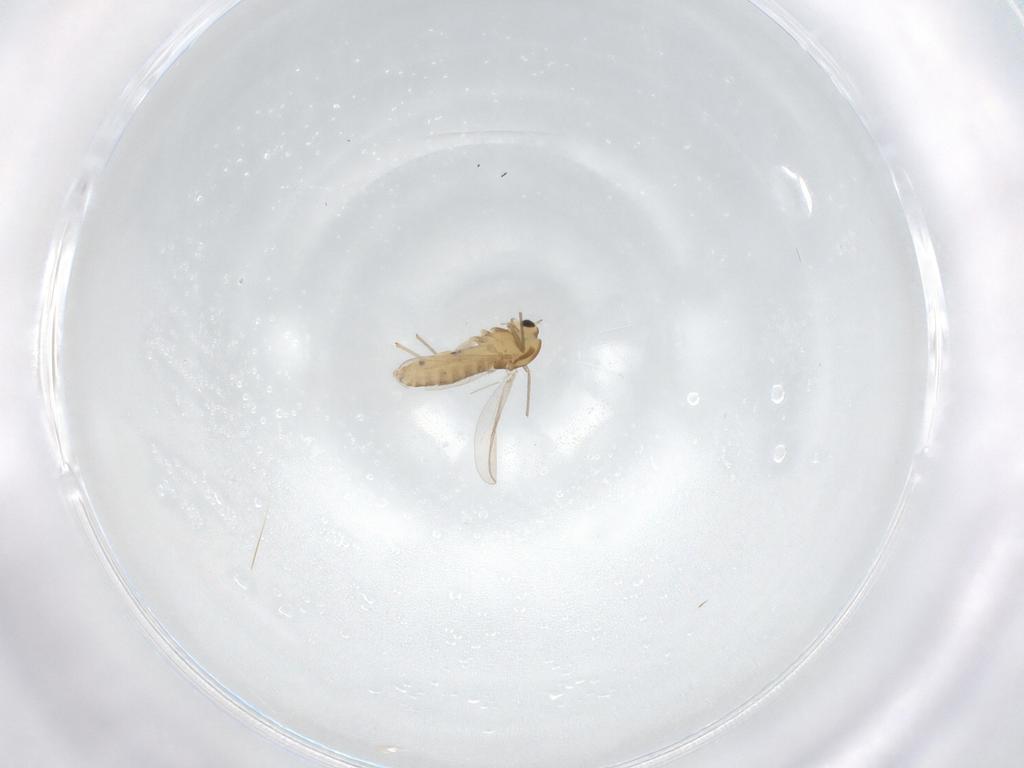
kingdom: Animalia
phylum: Arthropoda
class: Insecta
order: Diptera
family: Chironomidae
